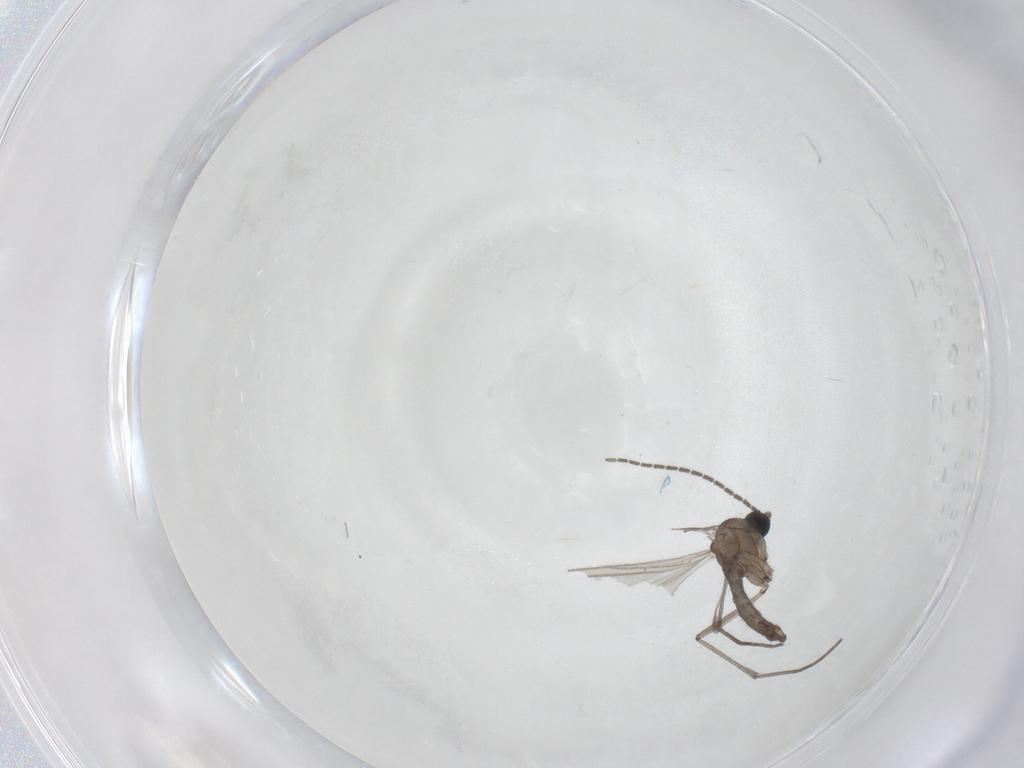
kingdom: Animalia
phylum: Arthropoda
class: Insecta
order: Diptera
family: Sciaridae
